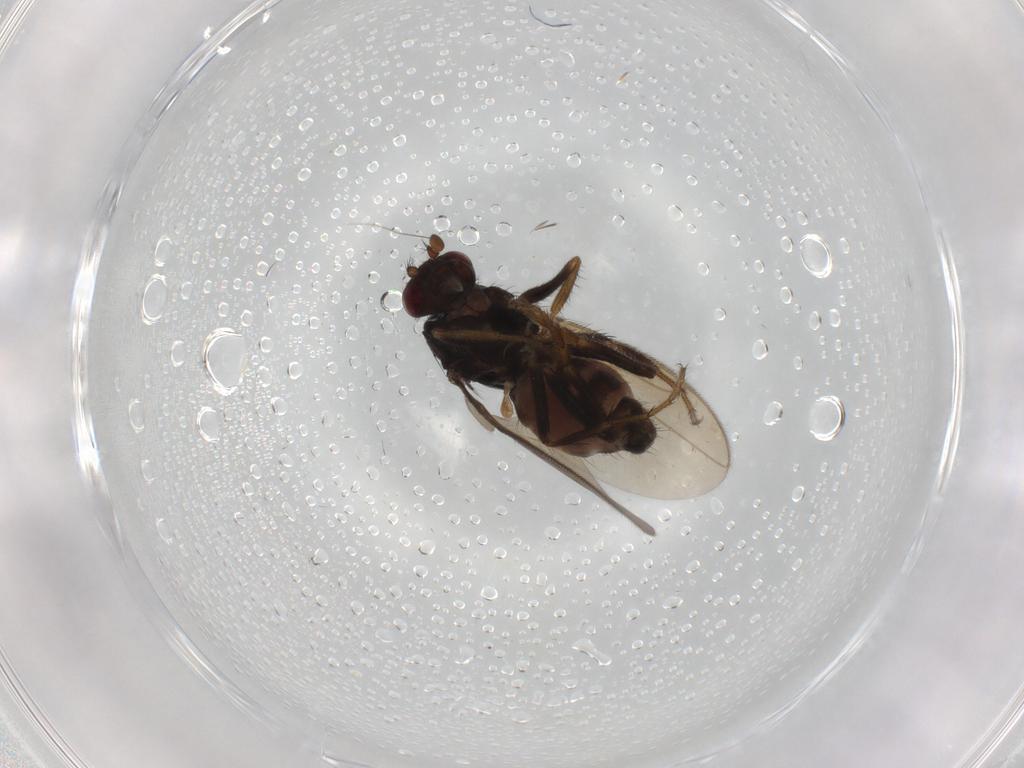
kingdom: Animalia
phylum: Arthropoda
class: Insecta
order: Diptera
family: Sphaeroceridae
